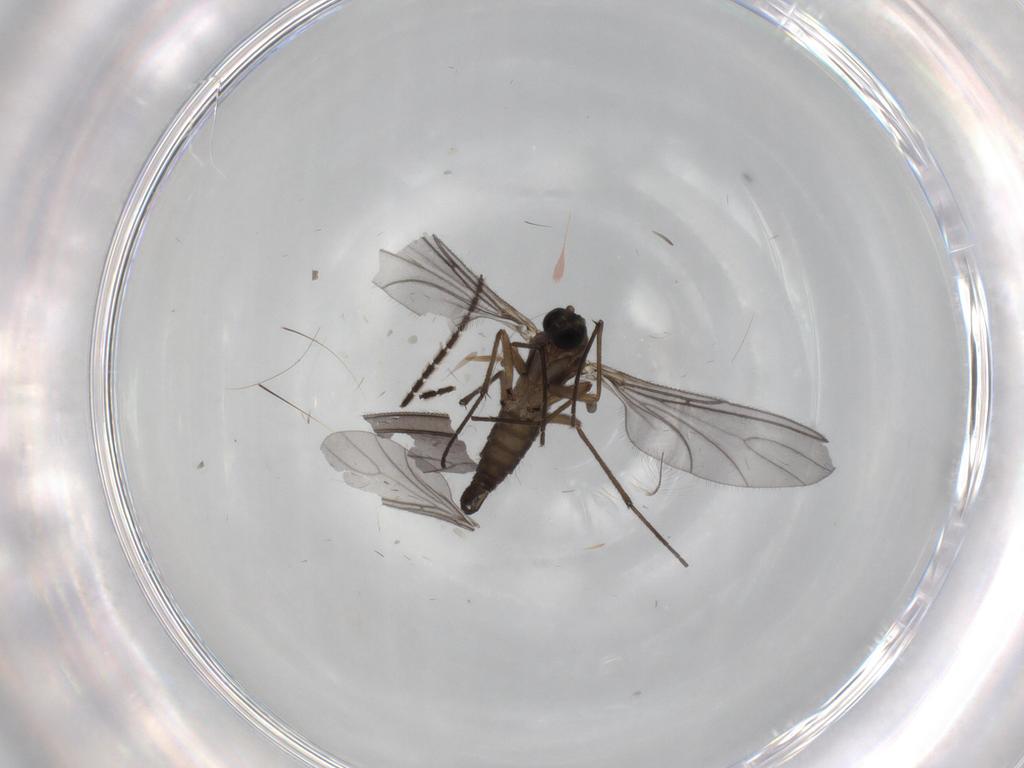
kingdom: Animalia
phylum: Arthropoda
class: Insecta
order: Diptera
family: Sciaridae
